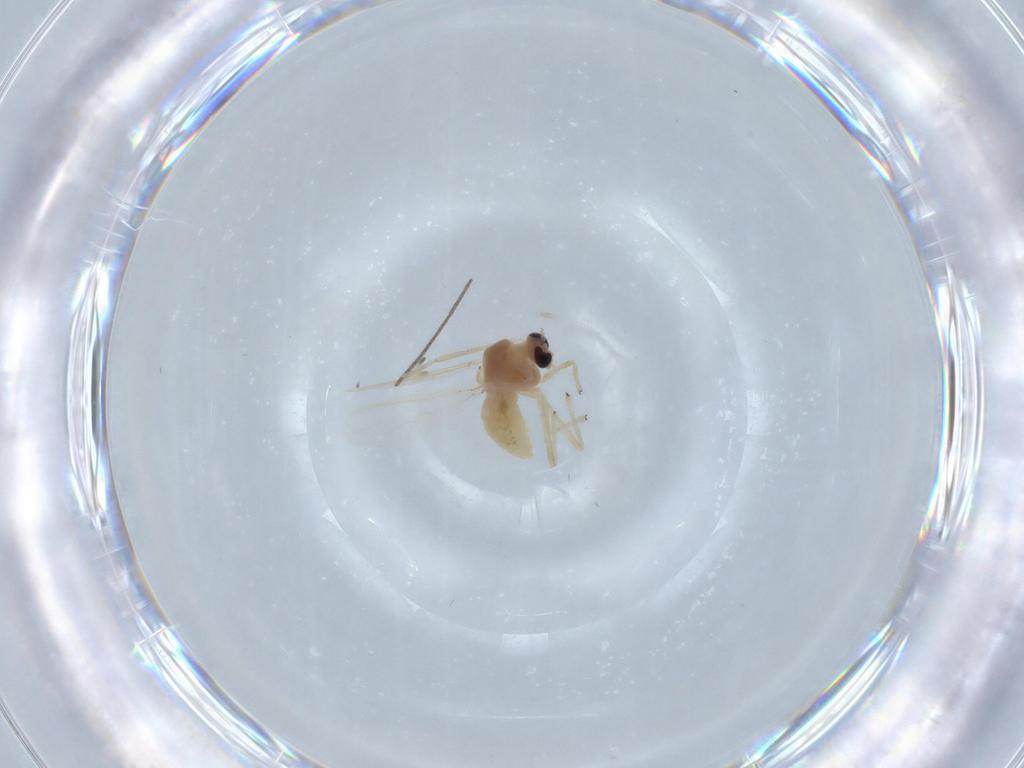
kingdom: Animalia
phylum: Arthropoda
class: Insecta
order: Diptera
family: Chironomidae
